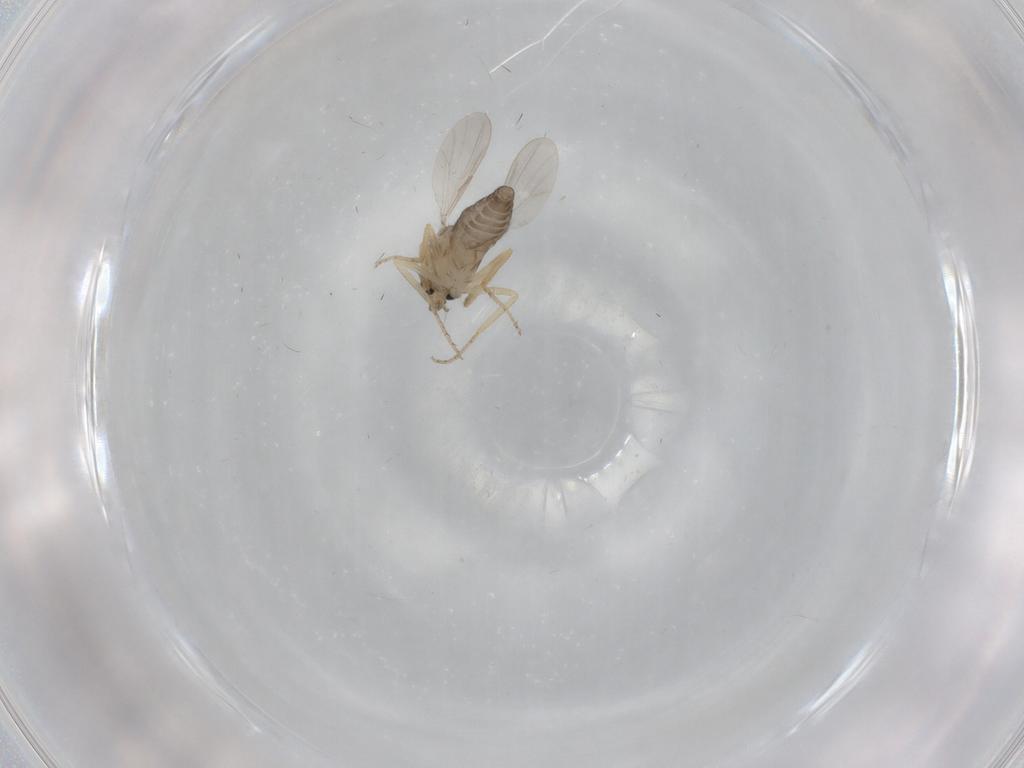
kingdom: Animalia
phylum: Arthropoda
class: Insecta
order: Diptera
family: Ceratopogonidae
